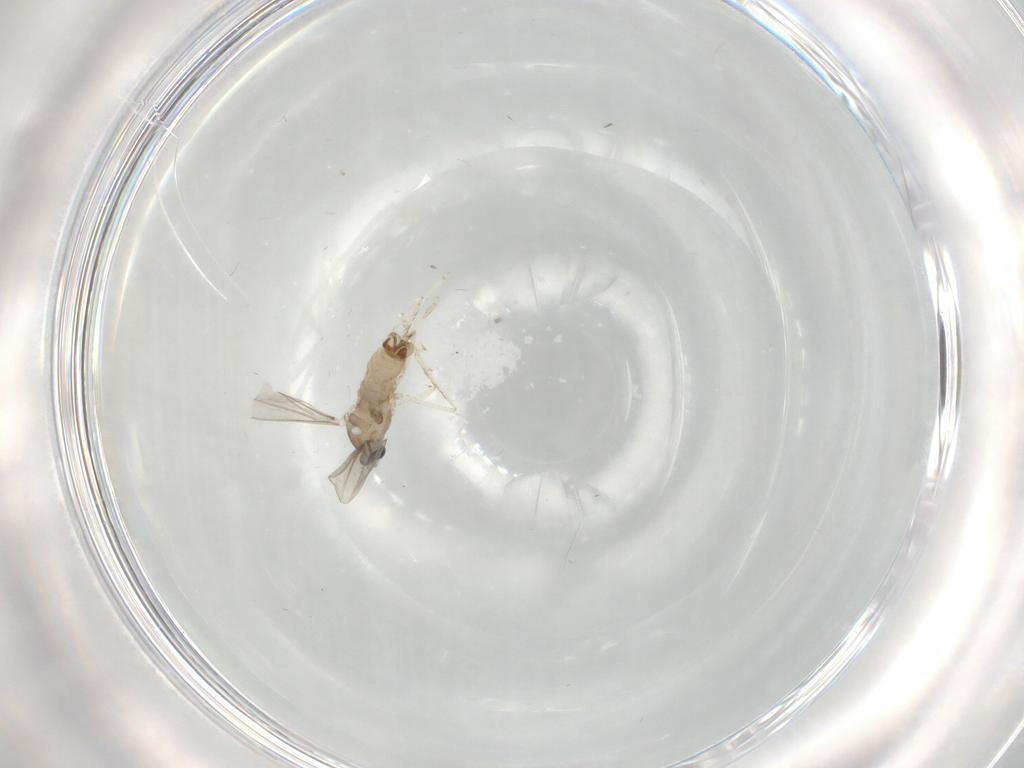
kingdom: Animalia
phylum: Arthropoda
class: Insecta
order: Diptera
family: Cecidomyiidae
